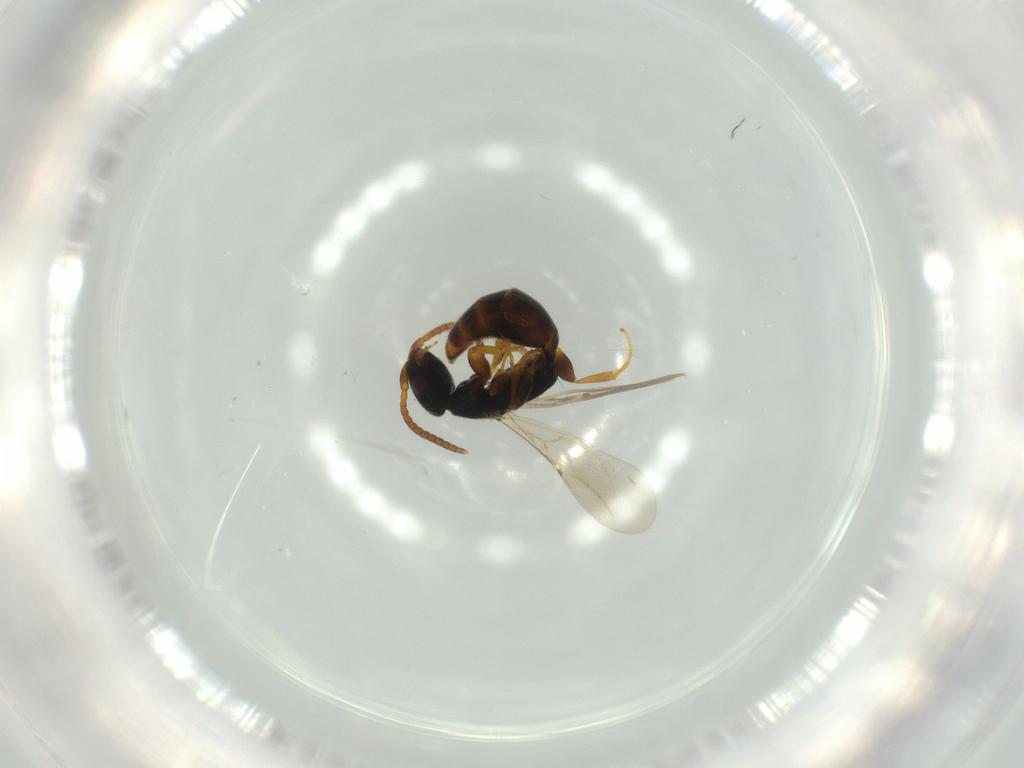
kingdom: Animalia
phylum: Arthropoda
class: Insecta
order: Hymenoptera
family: Bethylidae
